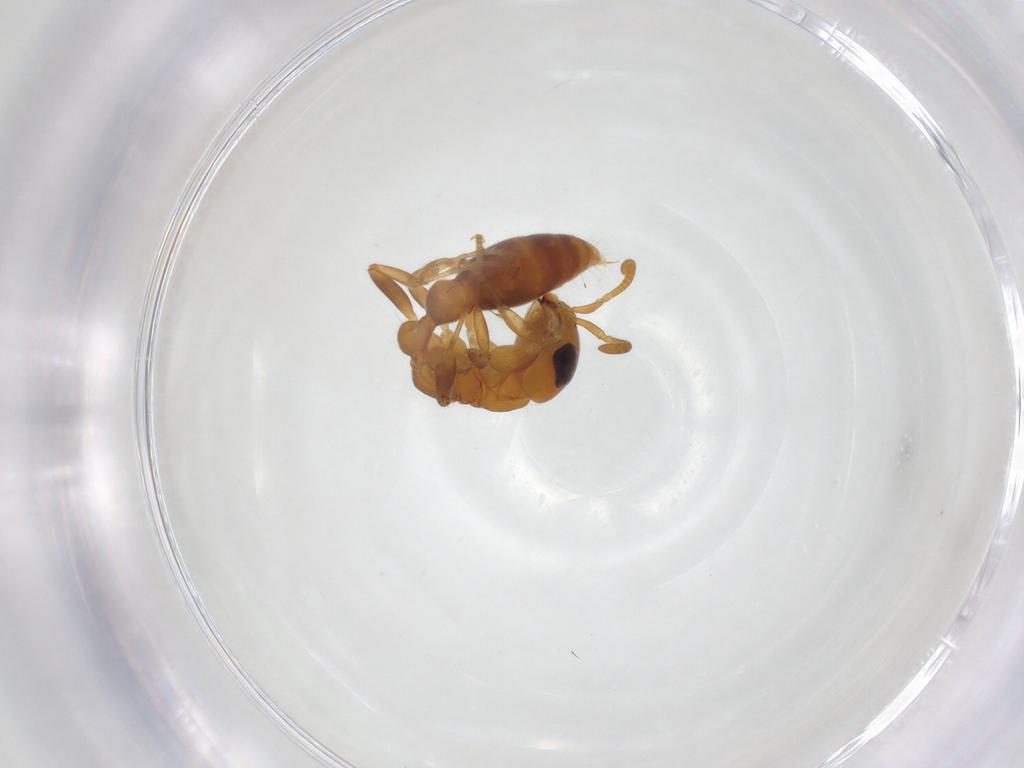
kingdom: Animalia
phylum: Arthropoda
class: Insecta
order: Hymenoptera
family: Formicidae
